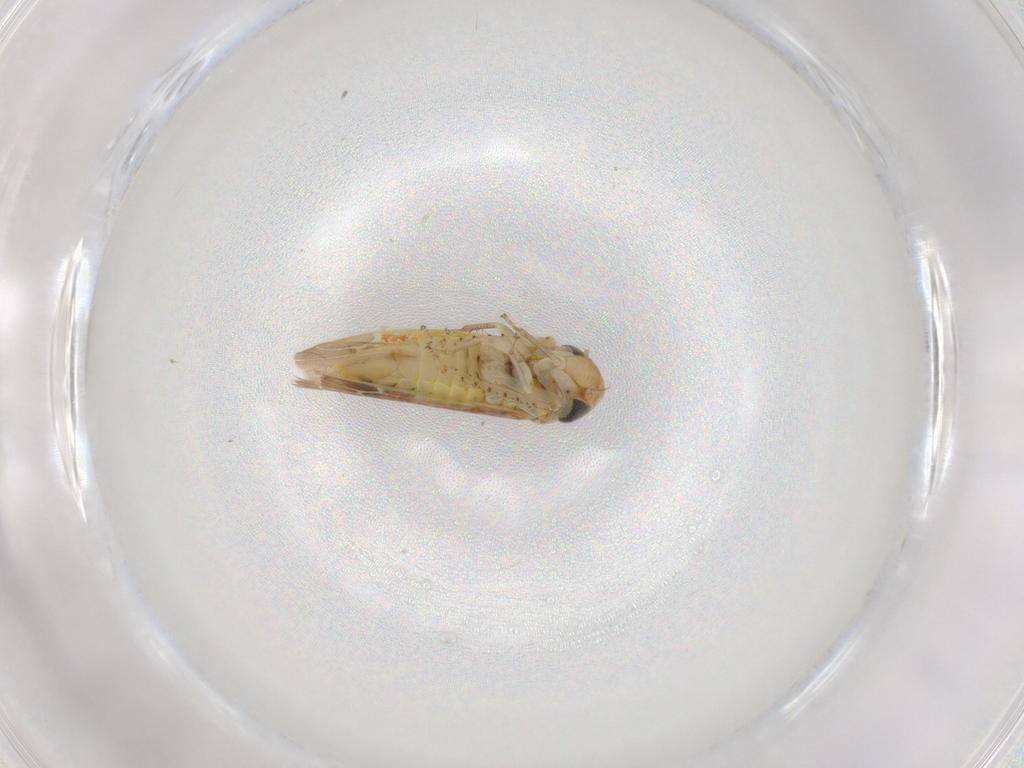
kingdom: Animalia
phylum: Arthropoda
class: Insecta
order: Hemiptera
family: Cicadellidae
